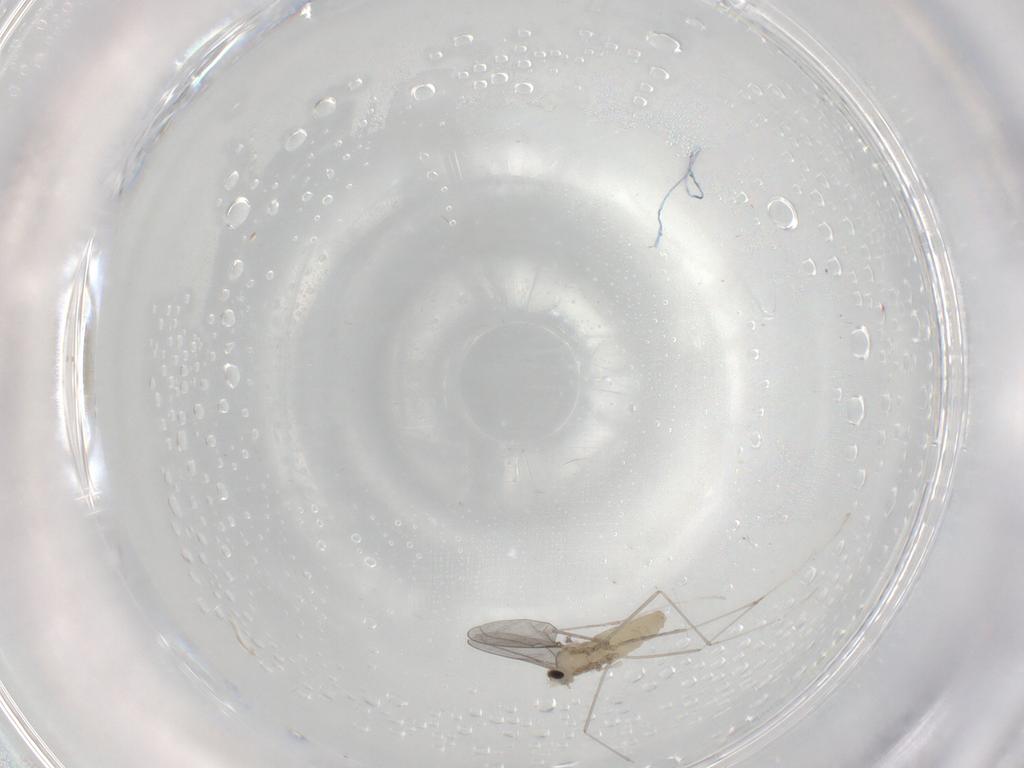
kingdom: Animalia
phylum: Arthropoda
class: Insecta
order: Diptera
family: Cecidomyiidae
